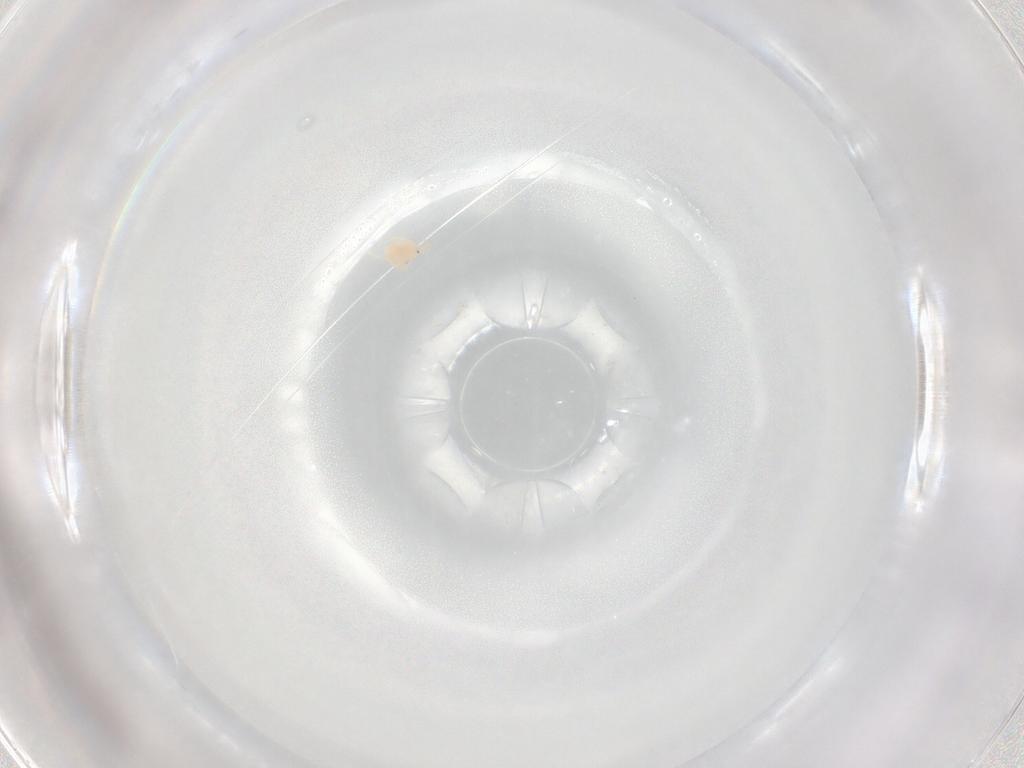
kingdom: Animalia
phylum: Arthropoda
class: Arachnida
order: Trombidiformes
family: Hydryphantidae
